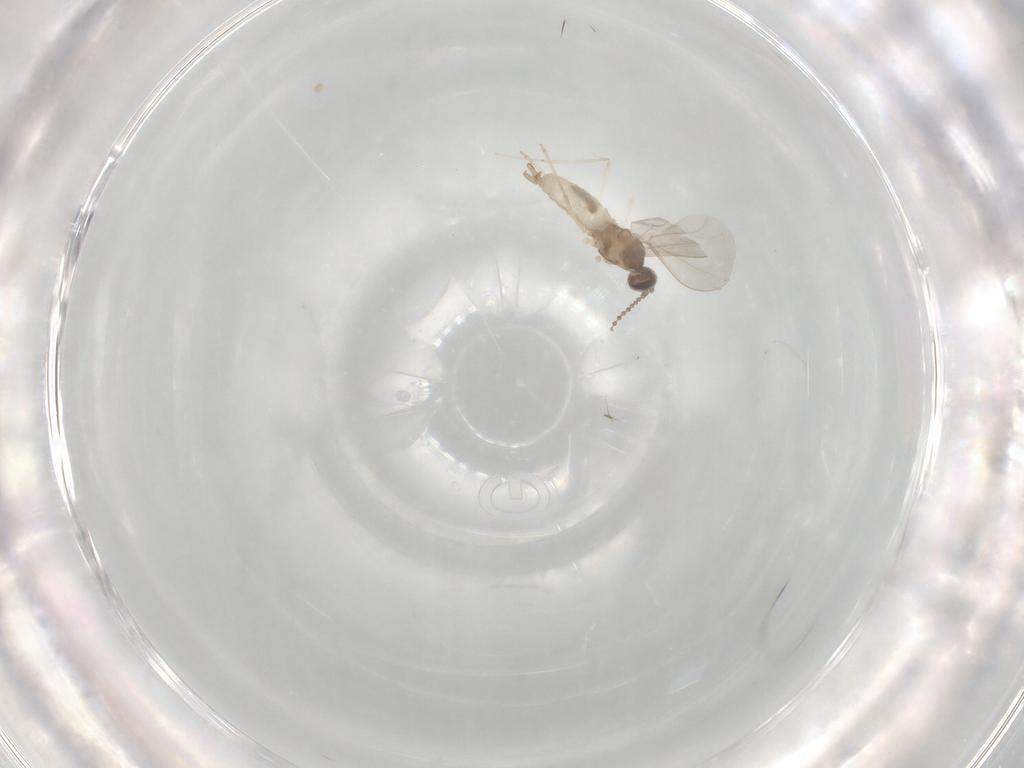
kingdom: Animalia
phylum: Arthropoda
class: Insecta
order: Diptera
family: Cecidomyiidae
